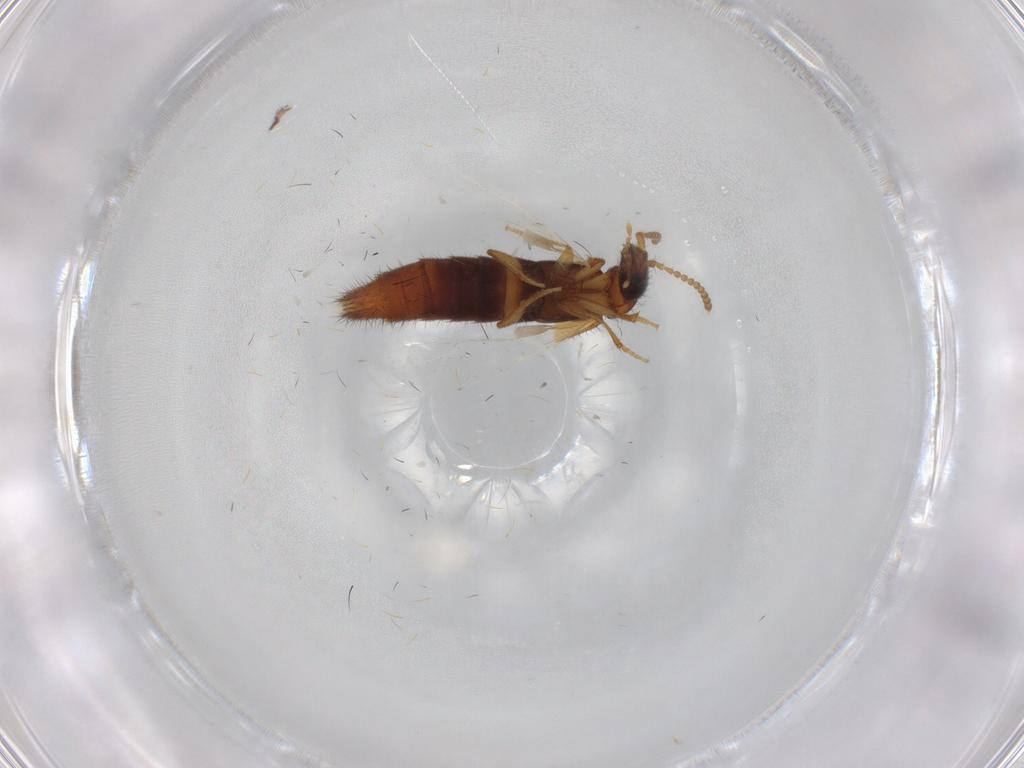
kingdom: Animalia
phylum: Arthropoda
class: Insecta
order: Coleoptera
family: Staphylinidae
